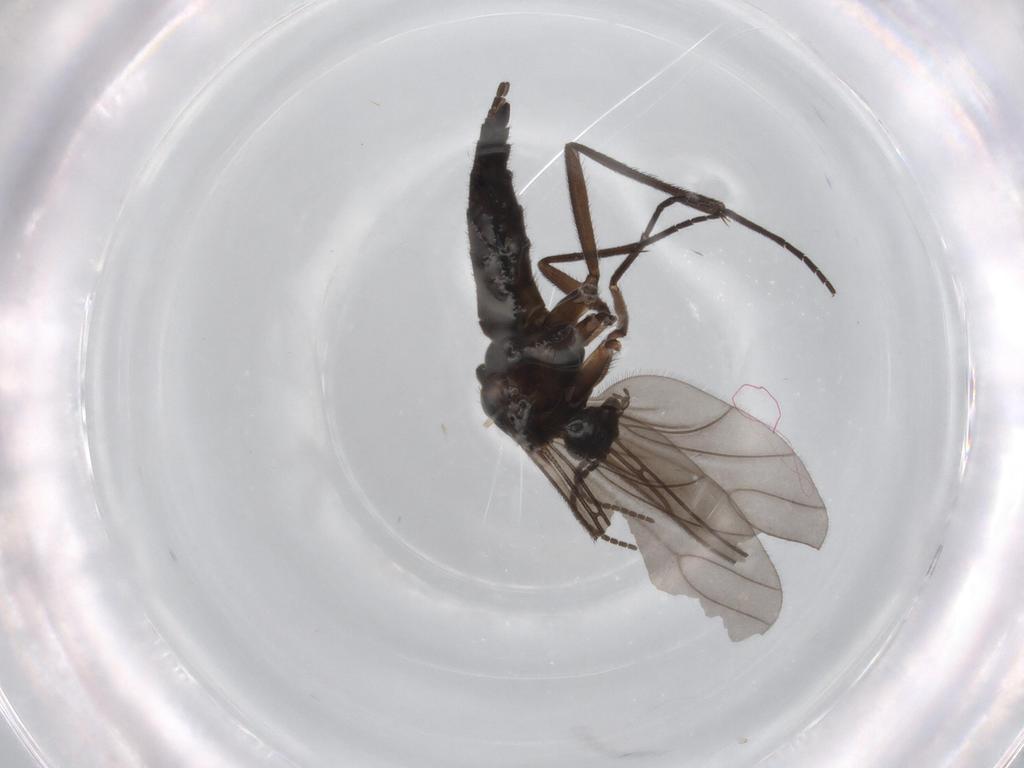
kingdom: Animalia
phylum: Arthropoda
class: Insecta
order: Diptera
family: Sciaridae
